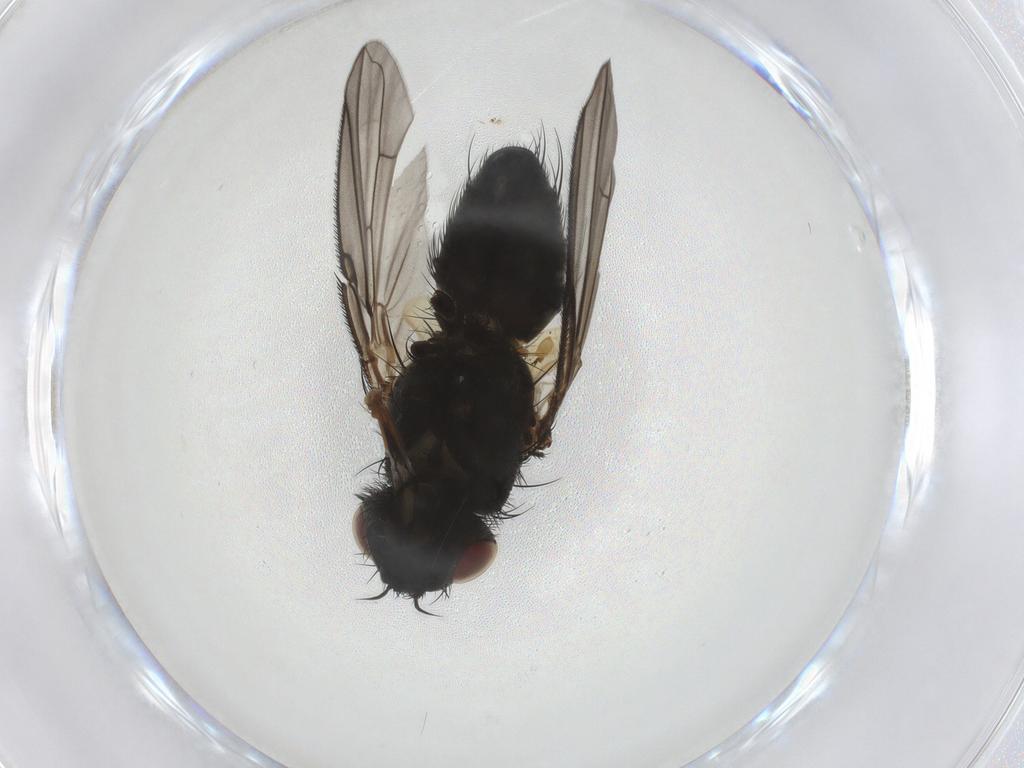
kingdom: Animalia
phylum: Arthropoda
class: Insecta
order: Diptera
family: Tachinidae
